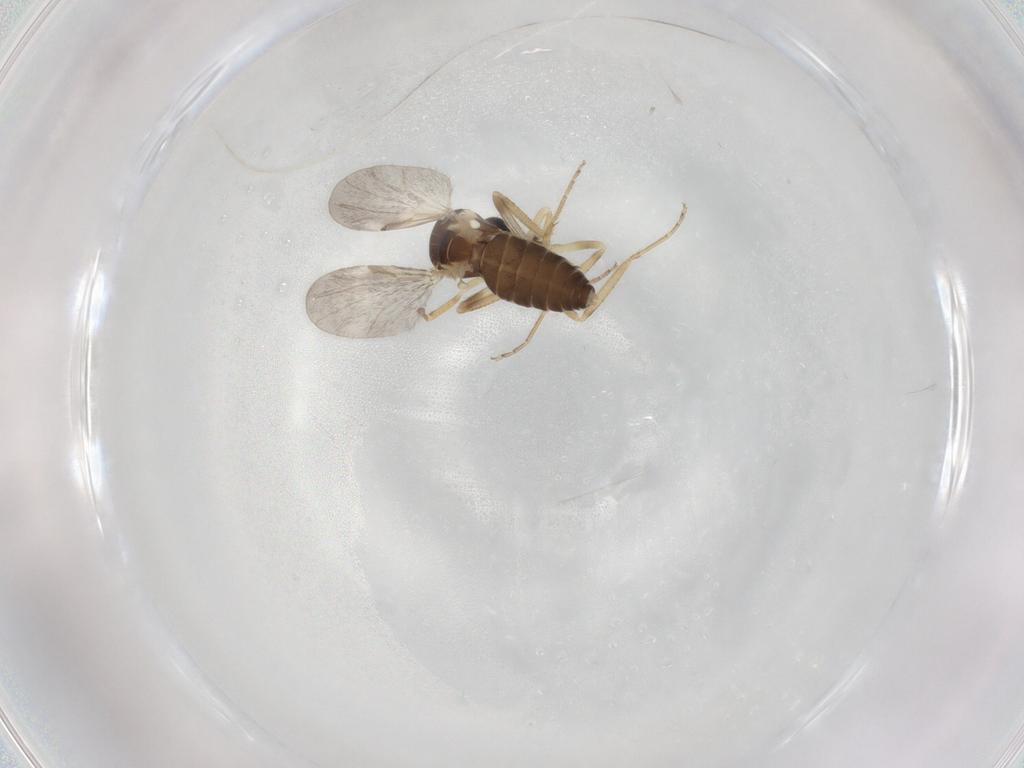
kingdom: Animalia
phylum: Arthropoda
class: Insecta
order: Diptera
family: Ceratopogonidae
